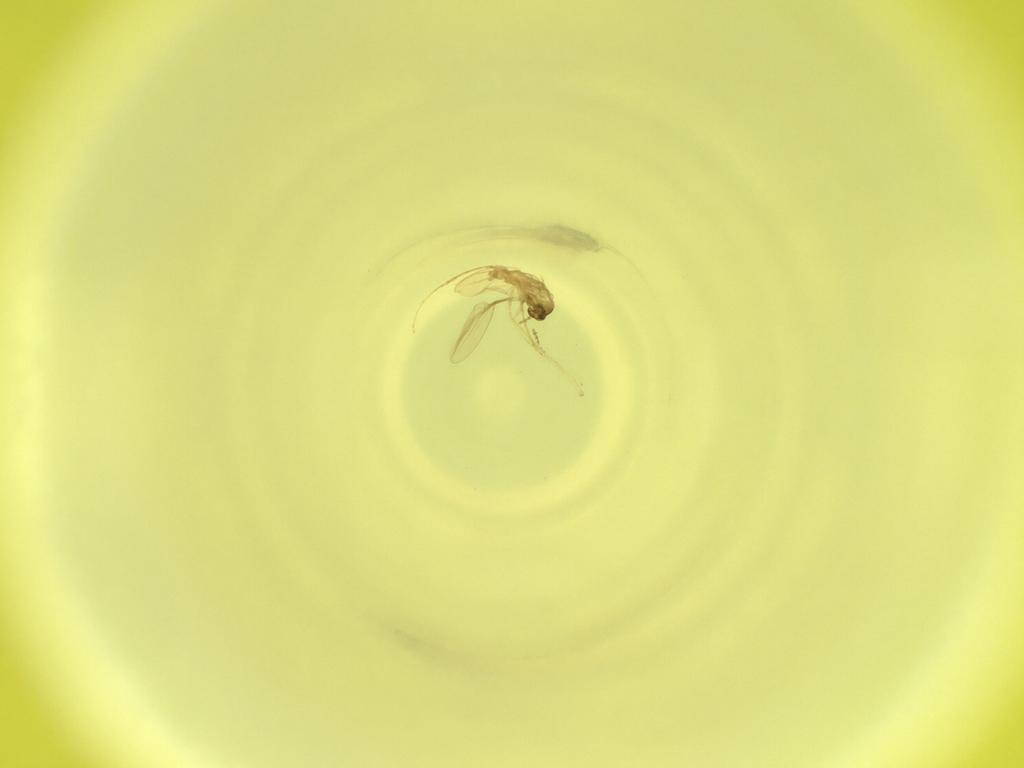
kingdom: Animalia
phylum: Arthropoda
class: Insecta
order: Diptera
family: Cecidomyiidae
